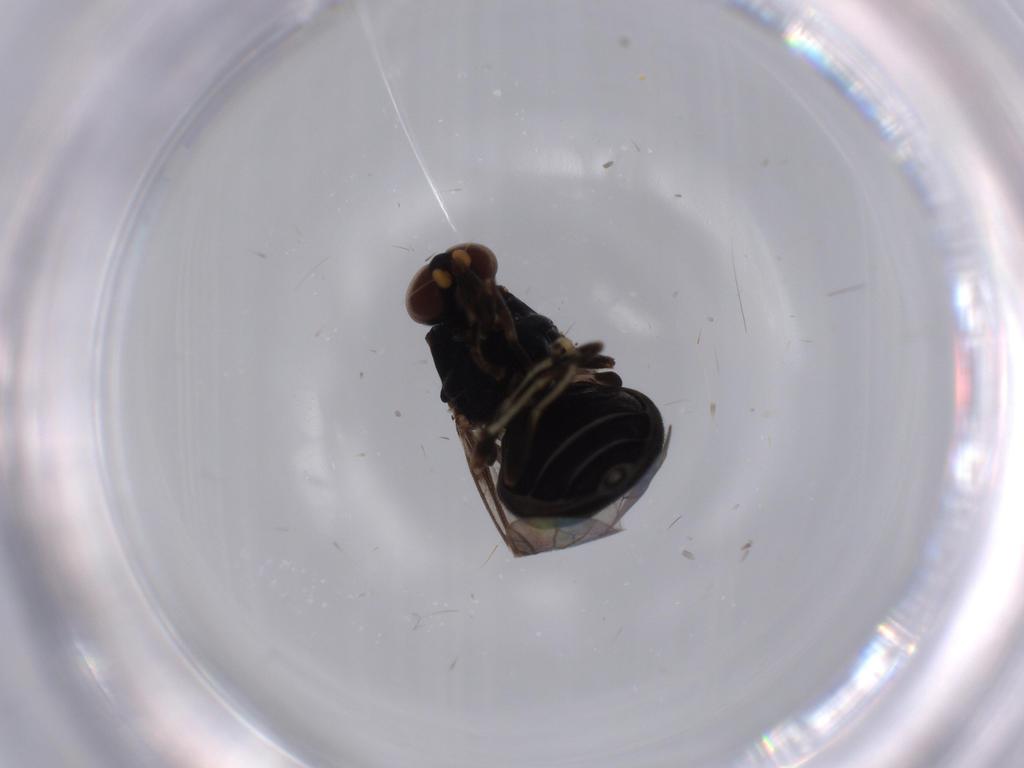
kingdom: Animalia
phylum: Arthropoda
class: Insecta
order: Diptera
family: Stratiomyidae
